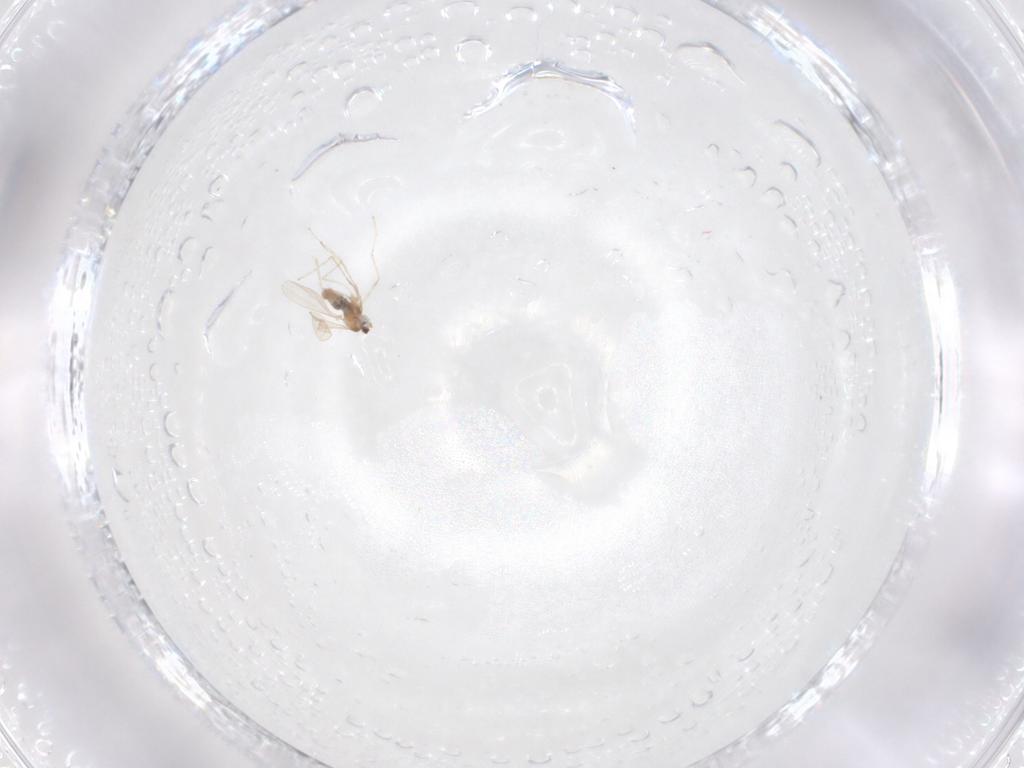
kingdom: Animalia
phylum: Arthropoda
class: Insecta
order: Diptera
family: Cecidomyiidae
